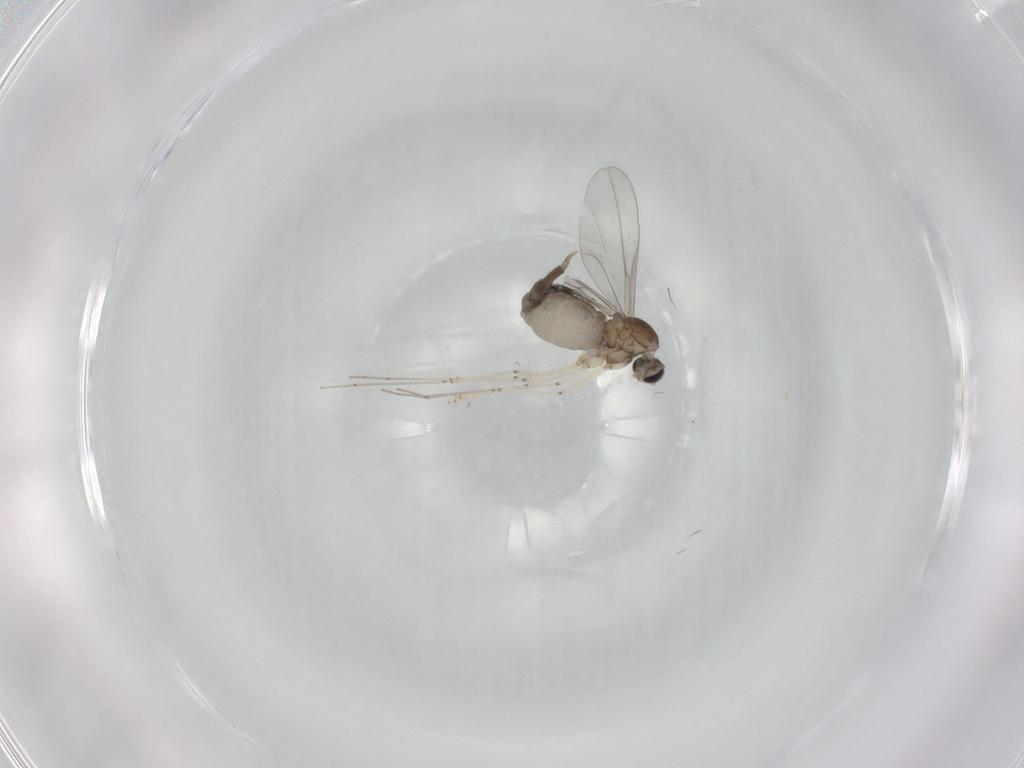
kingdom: Animalia
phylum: Arthropoda
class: Insecta
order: Diptera
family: Cecidomyiidae
